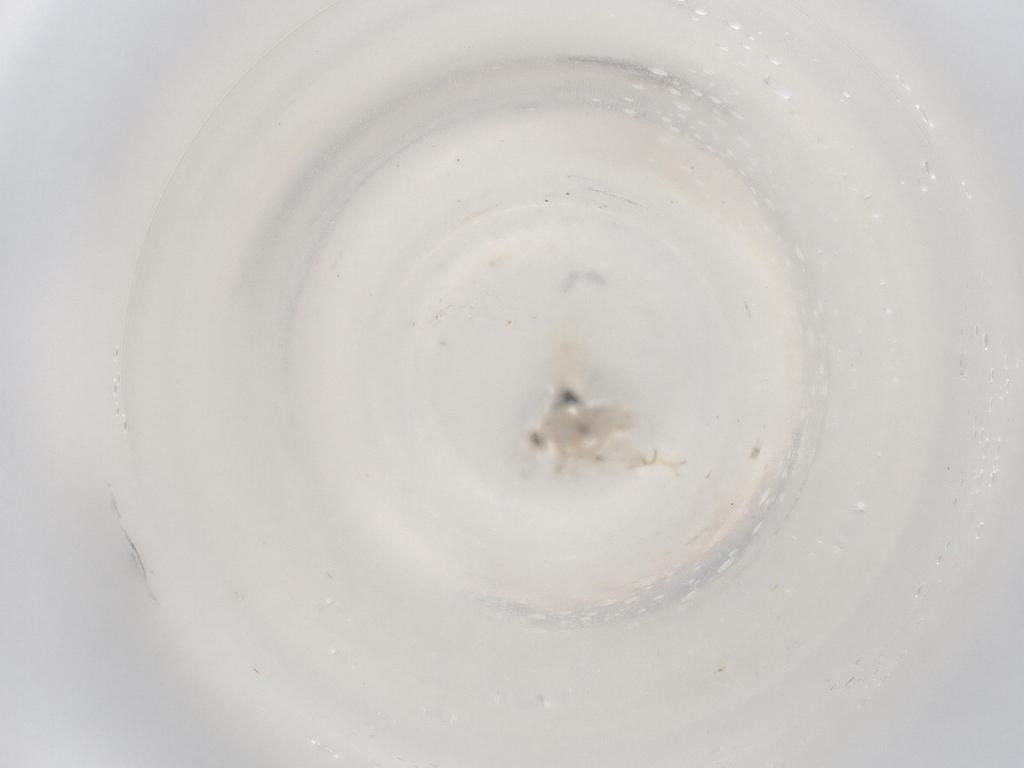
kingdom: Animalia
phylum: Arthropoda
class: Insecta
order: Diptera
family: Cecidomyiidae
